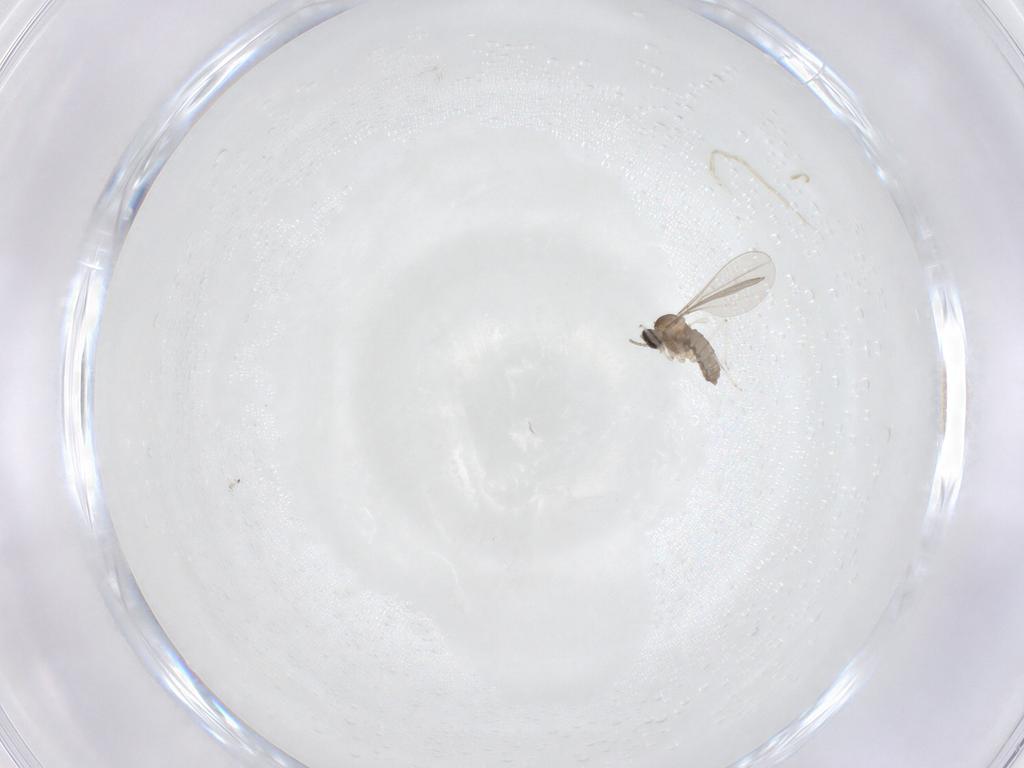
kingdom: Animalia
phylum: Arthropoda
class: Insecta
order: Diptera
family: Cecidomyiidae
